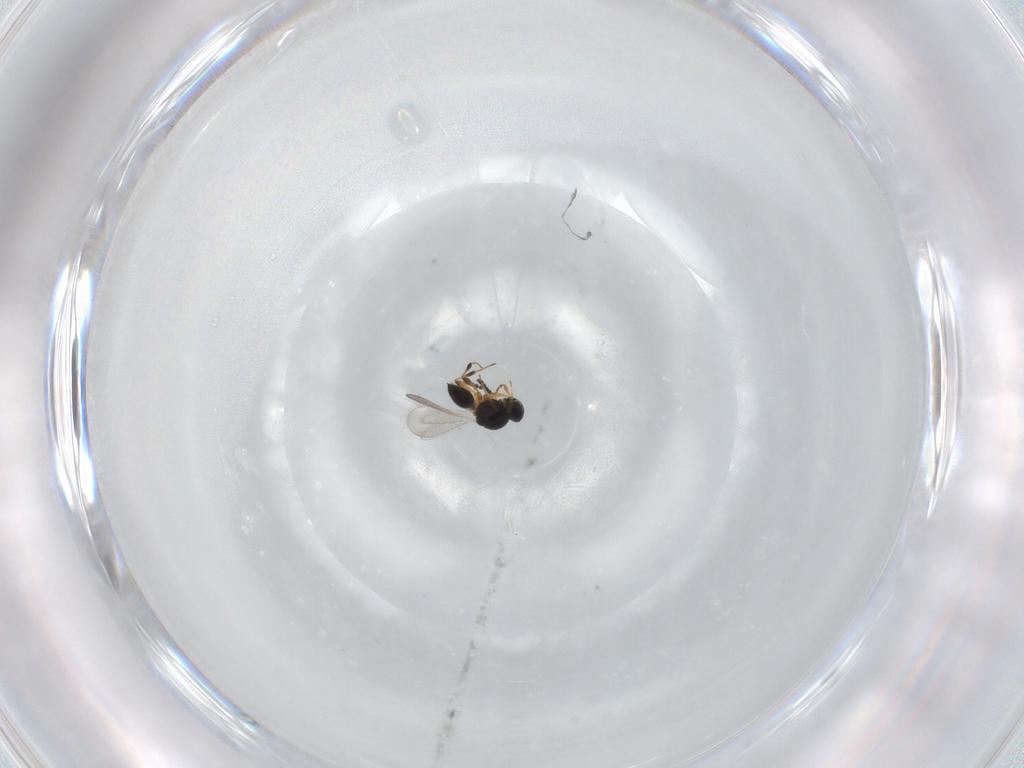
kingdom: Animalia
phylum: Arthropoda
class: Insecta
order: Hymenoptera
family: Platygastridae
